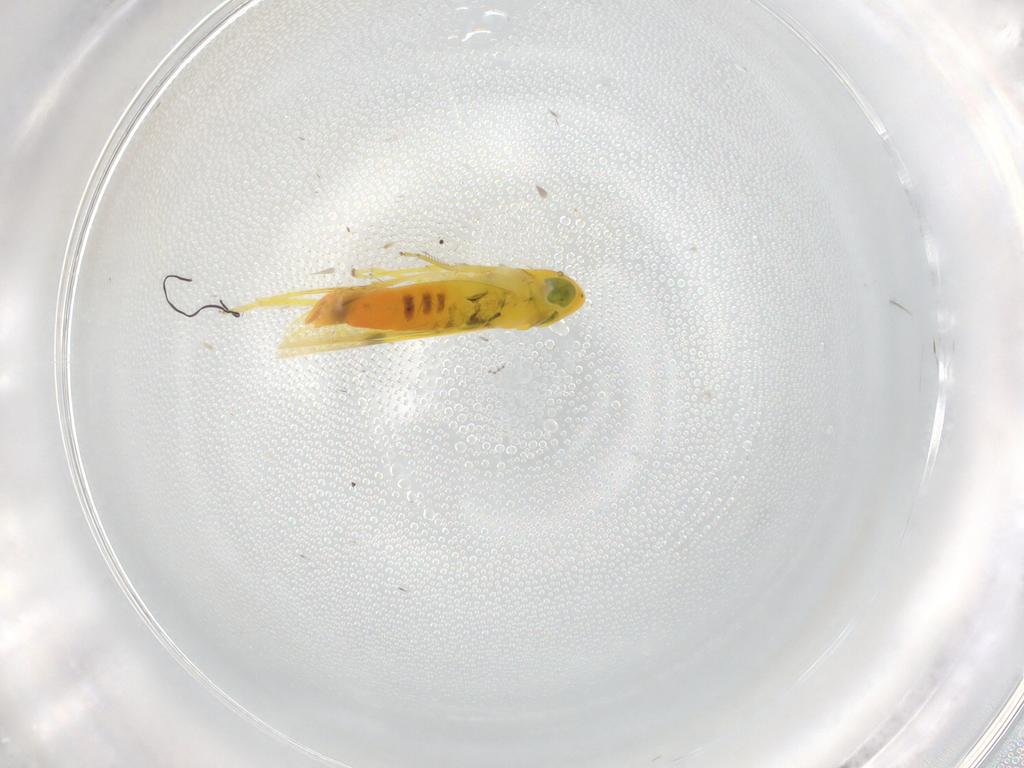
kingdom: Animalia
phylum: Arthropoda
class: Insecta
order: Hemiptera
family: Cicadellidae
